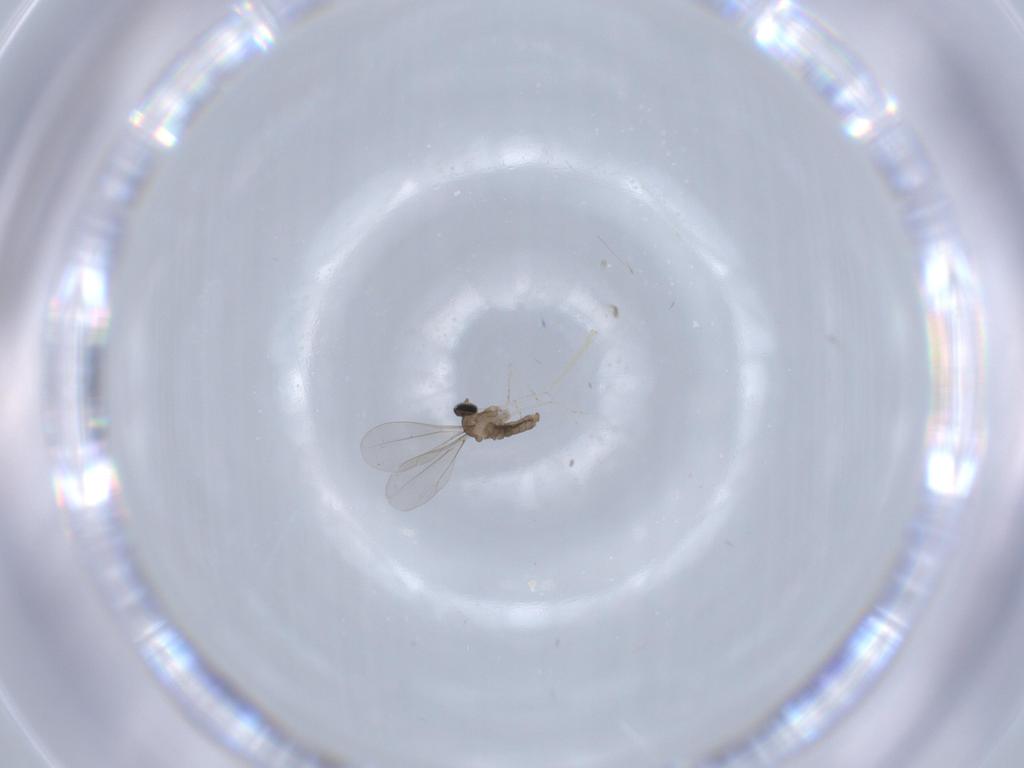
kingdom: Animalia
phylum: Arthropoda
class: Insecta
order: Diptera
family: Cecidomyiidae
